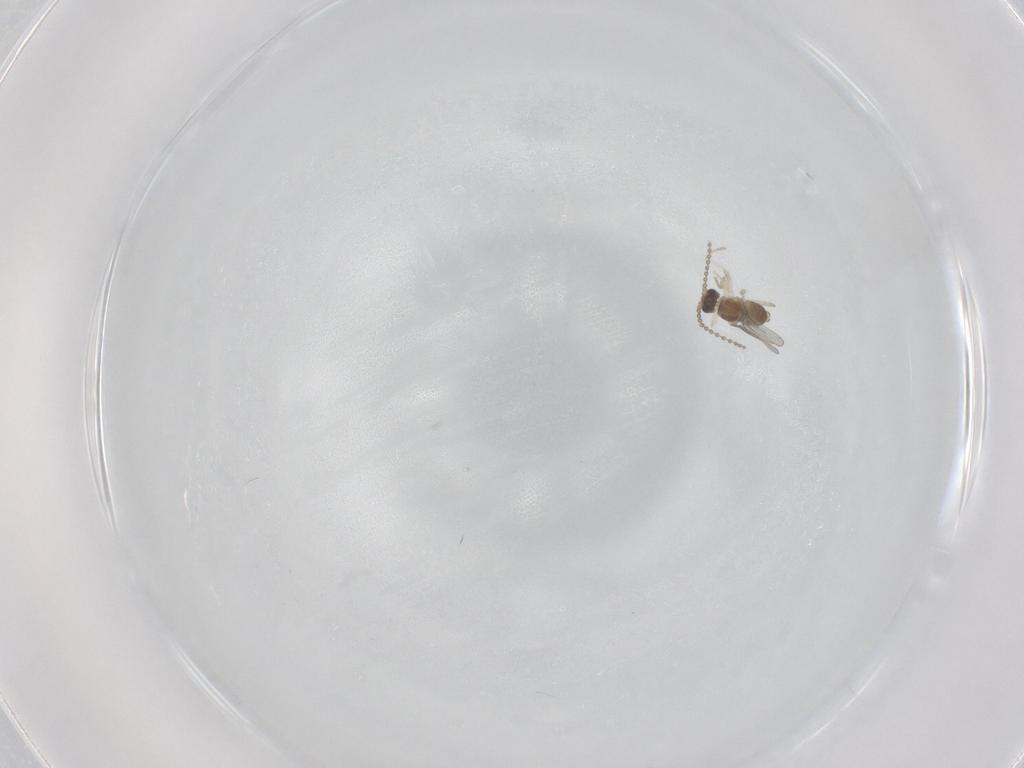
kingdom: Animalia
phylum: Arthropoda
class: Insecta
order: Diptera
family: Cecidomyiidae
